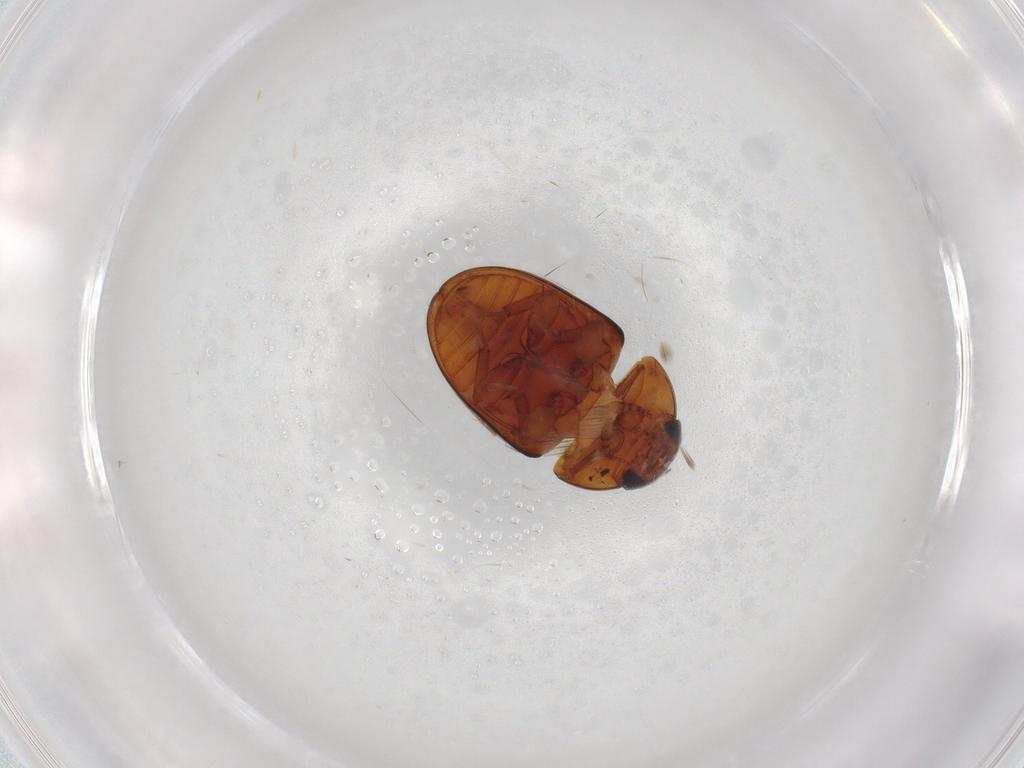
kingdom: Animalia
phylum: Arthropoda
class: Insecta
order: Coleoptera
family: Phalacridae
